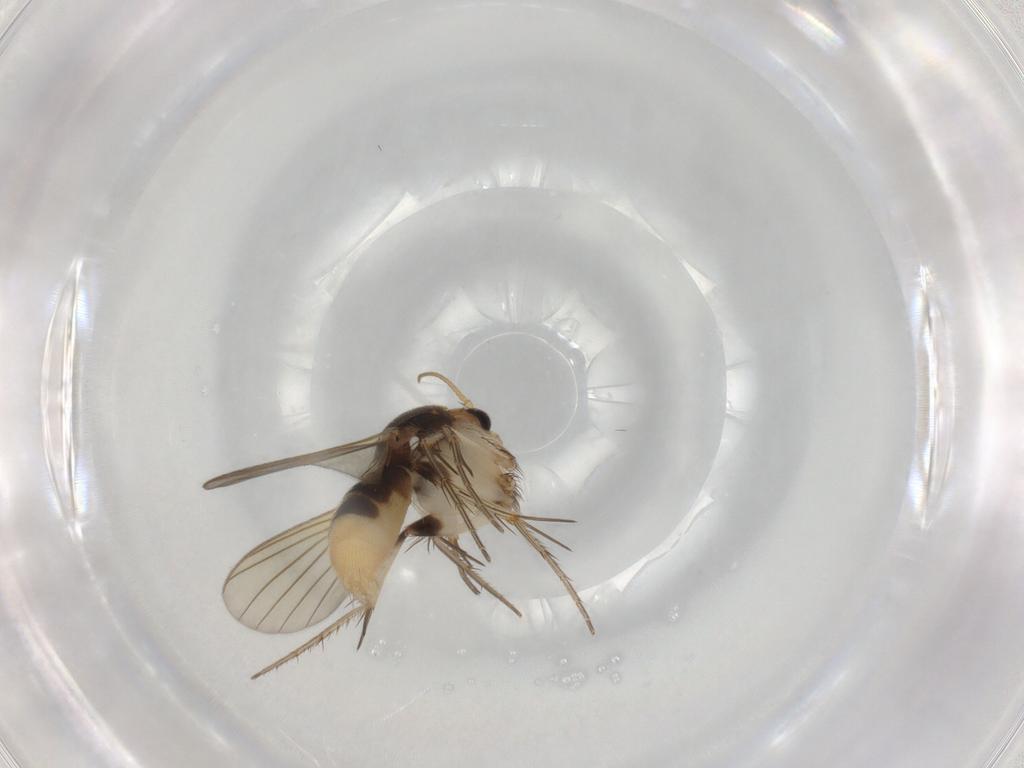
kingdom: Animalia
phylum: Arthropoda
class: Insecta
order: Diptera
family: Mycetophilidae
